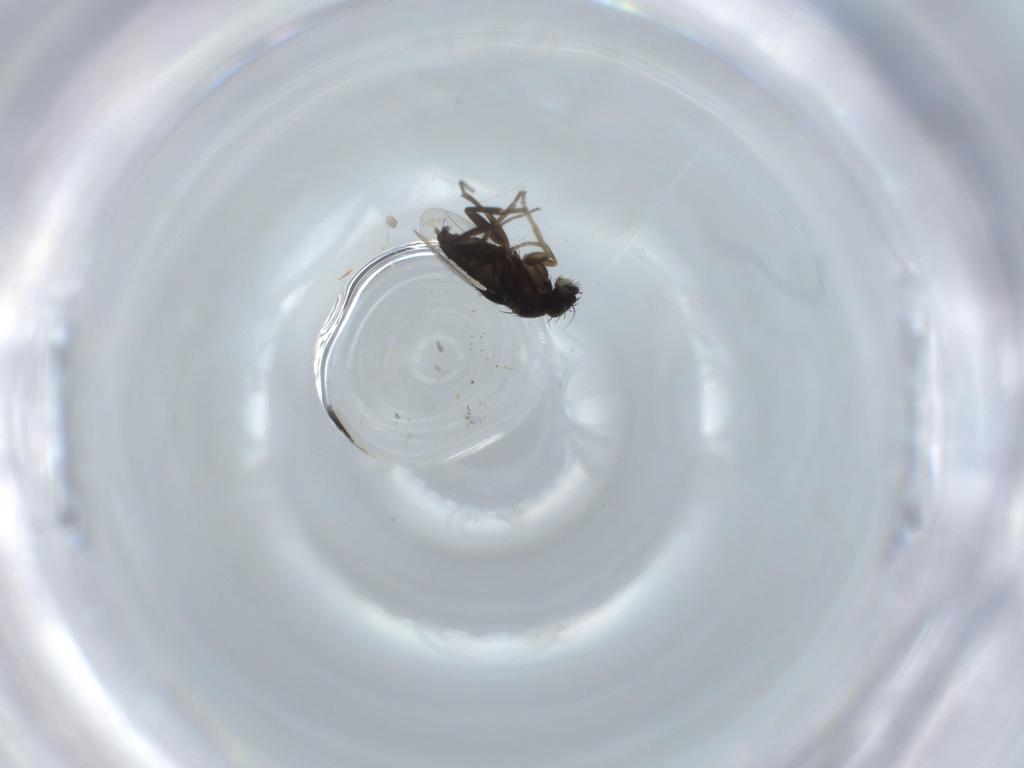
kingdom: Animalia
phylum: Arthropoda
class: Insecta
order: Diptera
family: Phoridae
